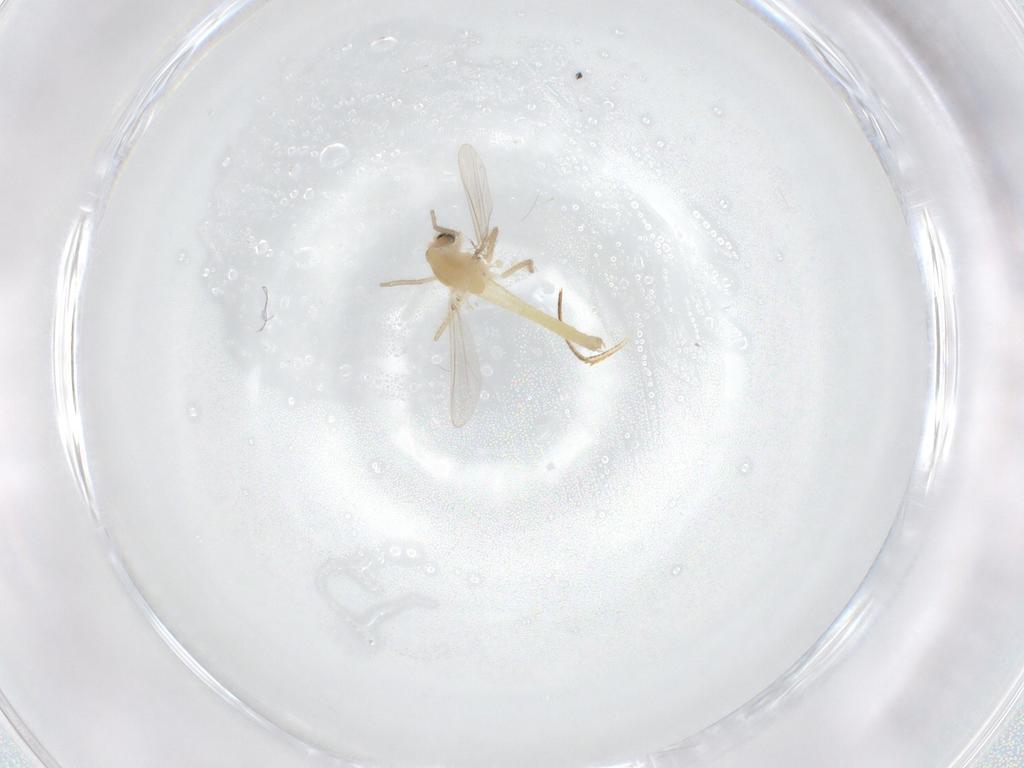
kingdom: Animalia
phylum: Arthropoda
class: Insecta
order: Diptera
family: Chironomidae
